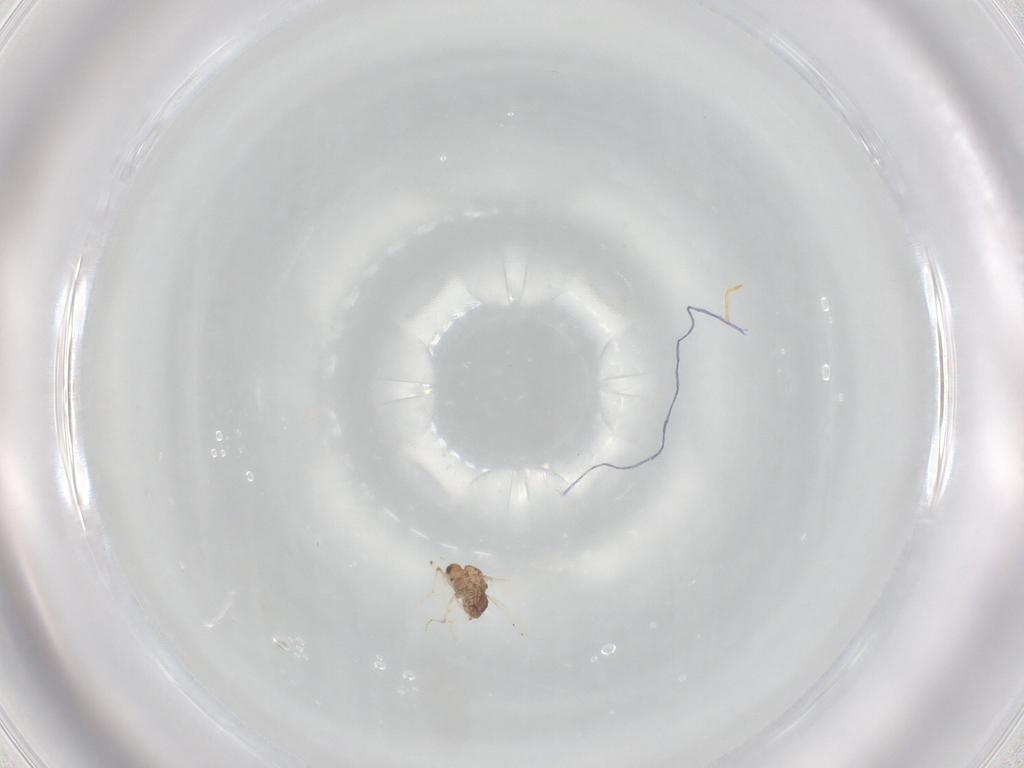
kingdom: Animalia
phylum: Arthropoda
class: Insecta
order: Diptera
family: Chironomidae
